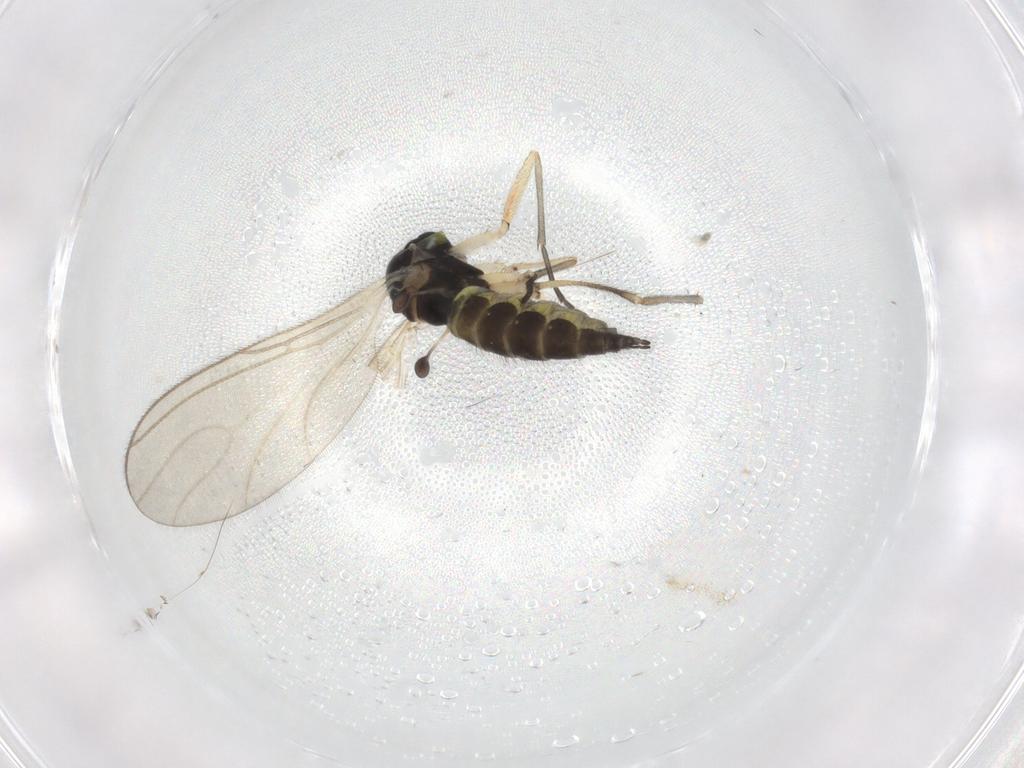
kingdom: Animalia
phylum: Arthropoda
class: Insecta
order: Diptera
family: Sciaridae
